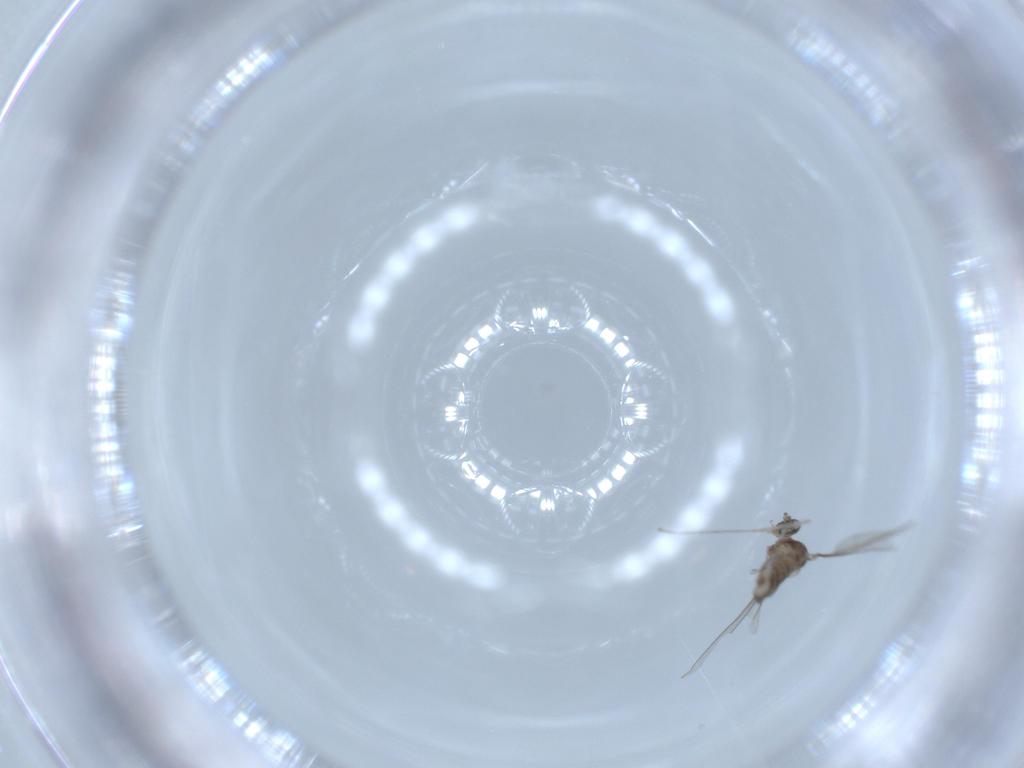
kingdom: Animalia
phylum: Arthropoda
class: Insecta
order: Diptera
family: Cecidomyiidae
